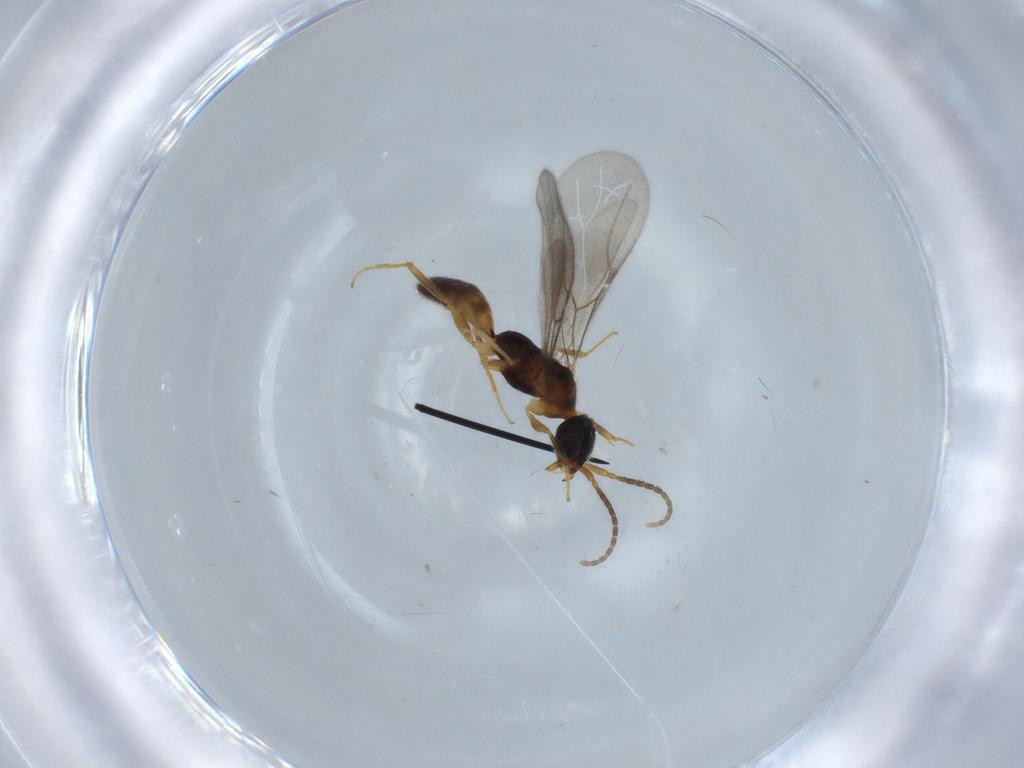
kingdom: Animalia
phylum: Arthropoda
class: Insecta
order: Hymenoptera
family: Bethylidae
